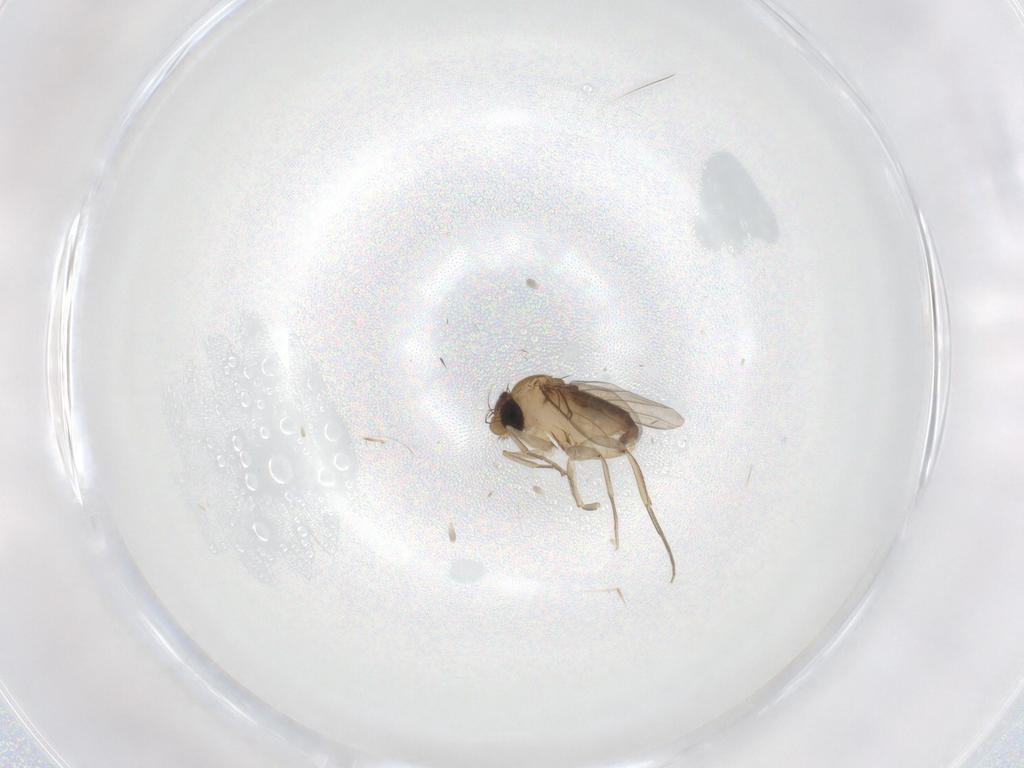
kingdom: Animalia
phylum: Arthropoda
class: Insecta
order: Diptera
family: Phoridae
